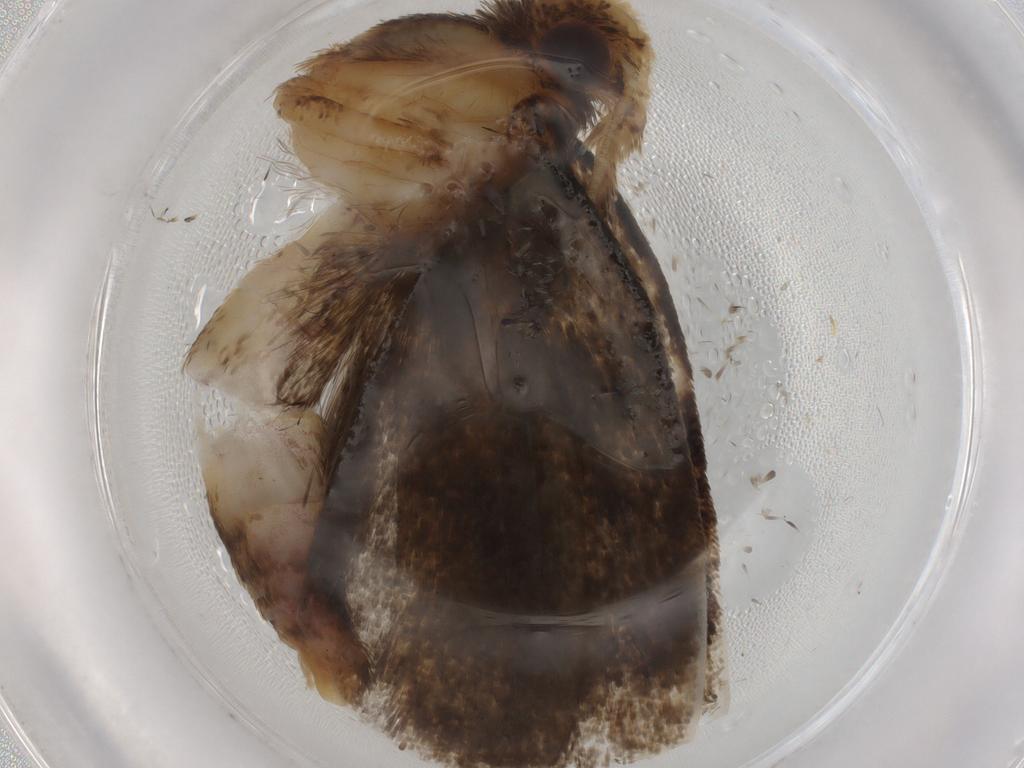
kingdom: Animalia
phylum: Arthropoda
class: Insecta
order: Lepidoptera
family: Tineidae
